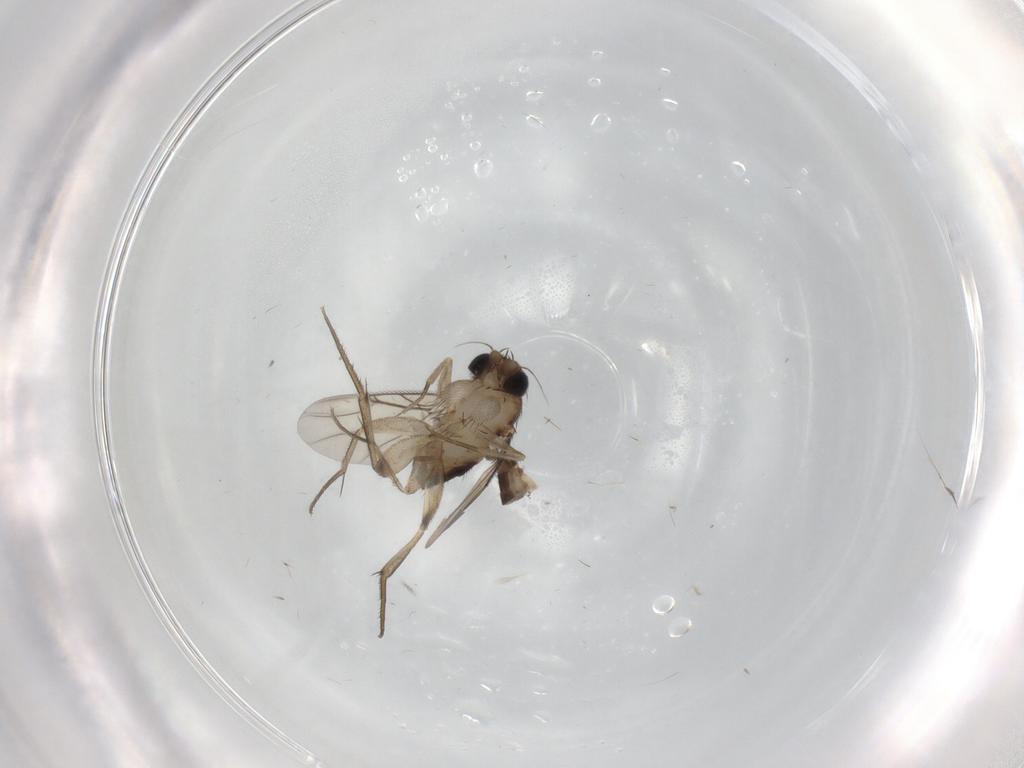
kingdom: Animalia
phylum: Arthropoda
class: Insecta
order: Diptera
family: Phoridae
